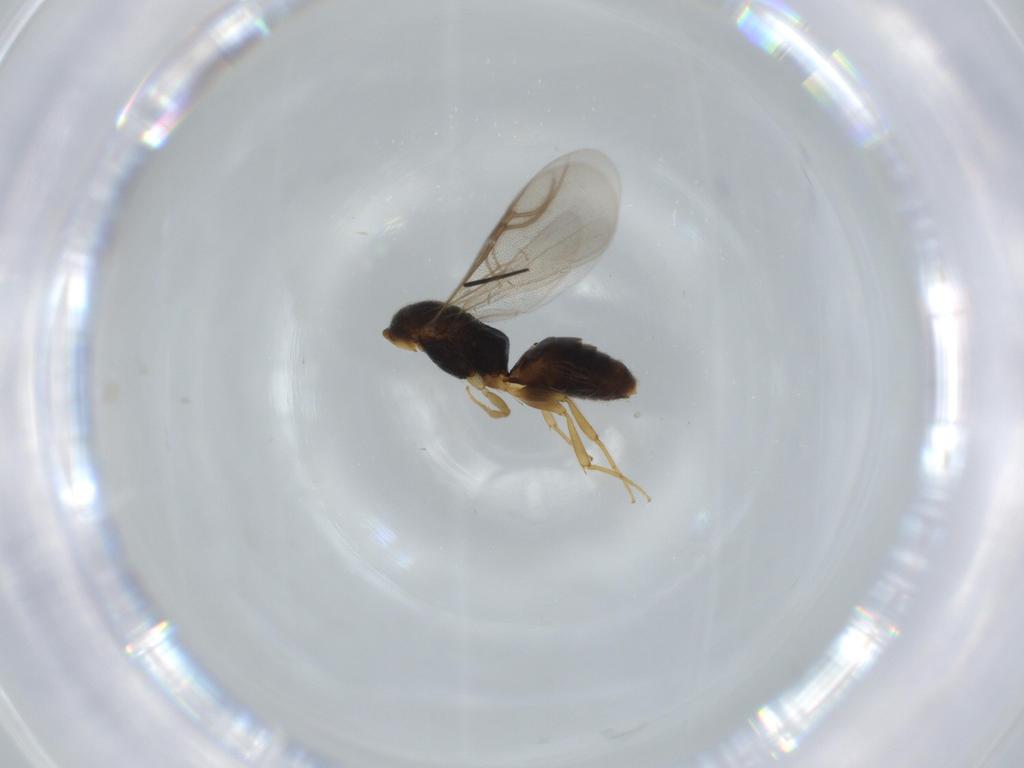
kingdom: Animalia
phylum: Arthropoda
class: Insecta
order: Hymenoptera
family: Bethylidae
